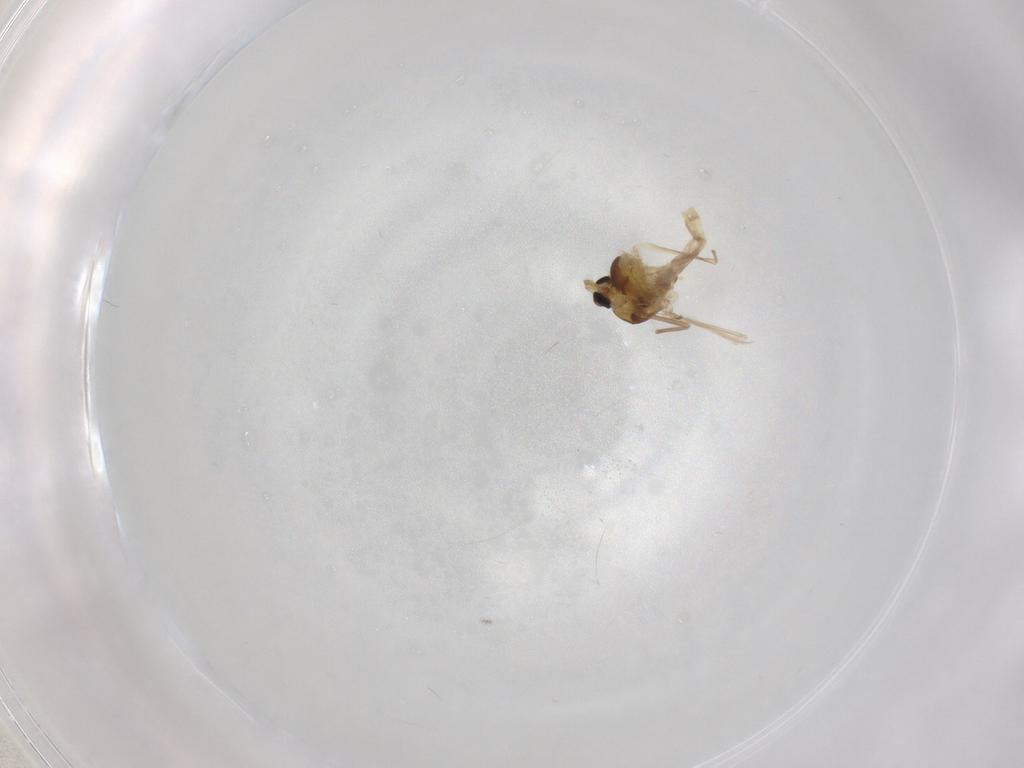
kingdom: Animalia
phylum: Arthropoda
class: Insecta
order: Diptera
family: Chironomidae
